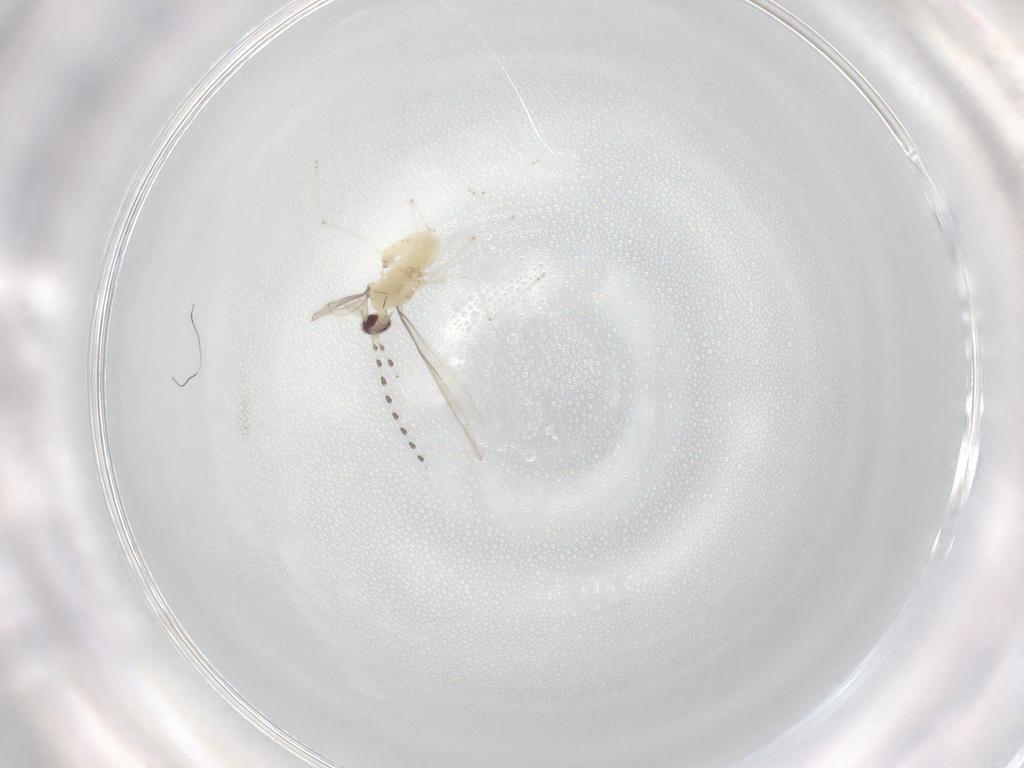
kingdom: Animalia
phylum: Arthropoda
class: Insecta
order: Diptera
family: Cecidomyiidae
